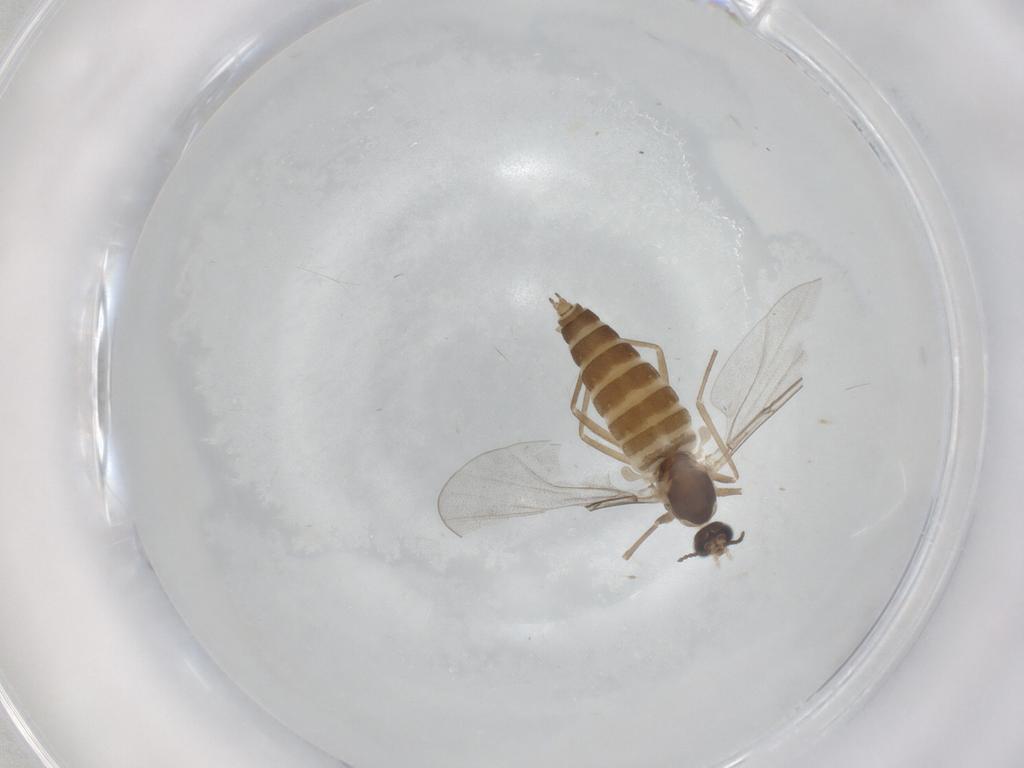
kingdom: Animalia
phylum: Arthropoda
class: Insecta
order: Diptera
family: Cecidomyiidae
